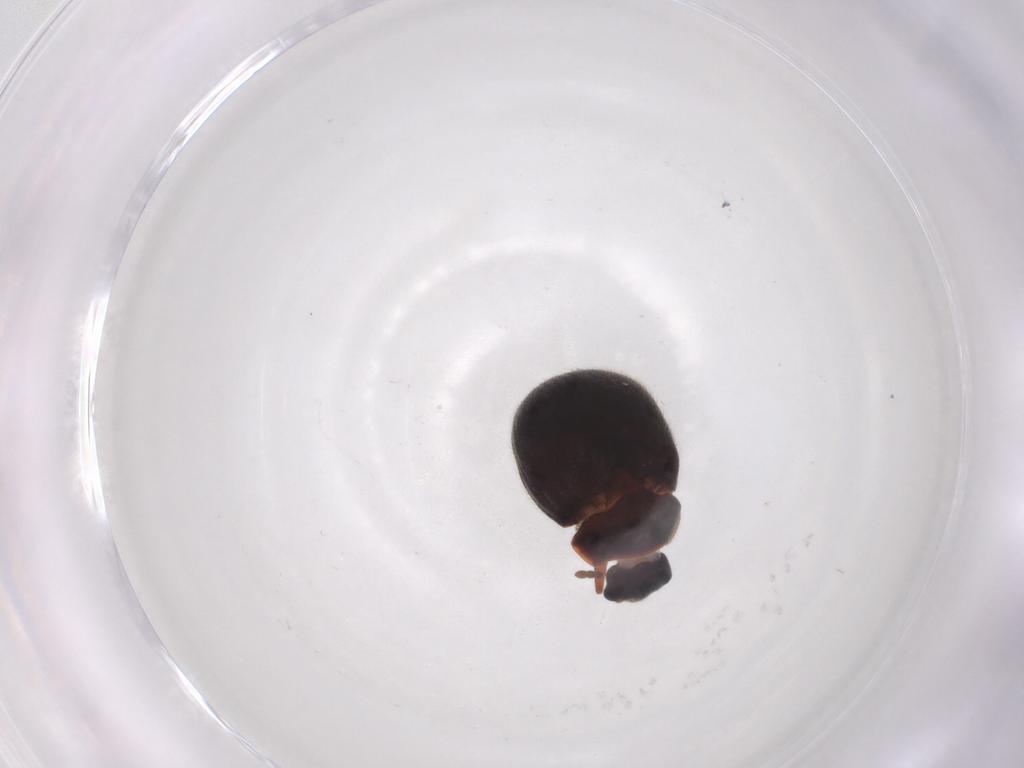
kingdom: Animalia
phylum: Arthropoda
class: Insecta
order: Coleoptera
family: Sphindidae
